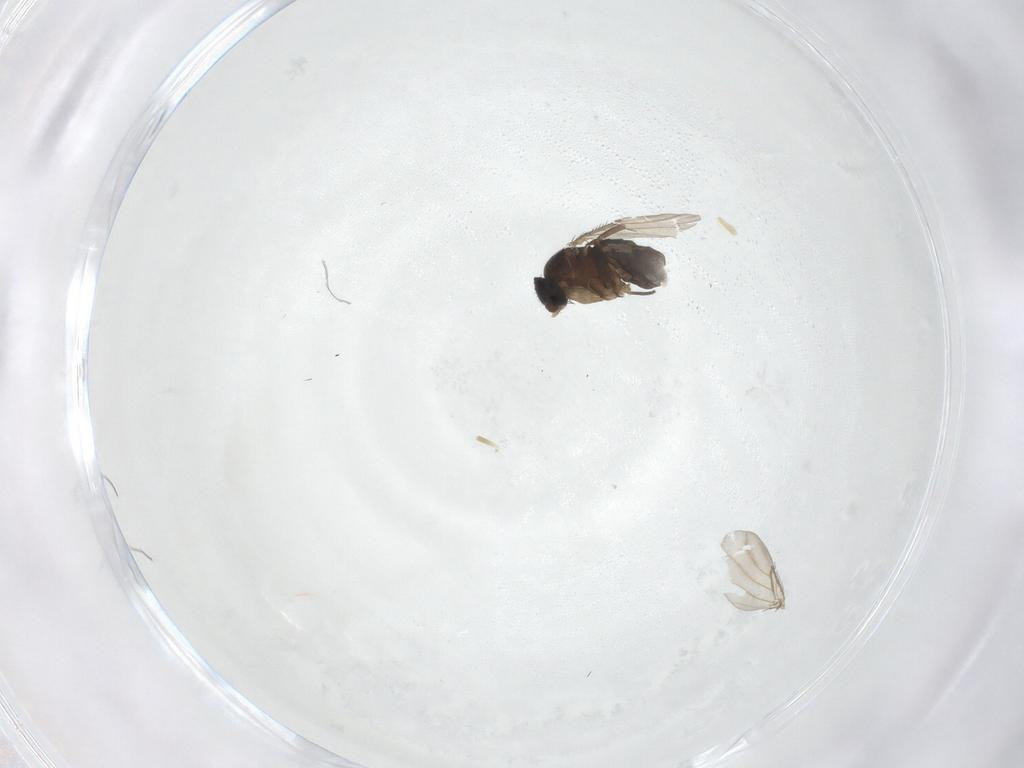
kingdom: Animalia
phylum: Arthropoda
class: Insecta
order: Diptera
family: Phoridae
